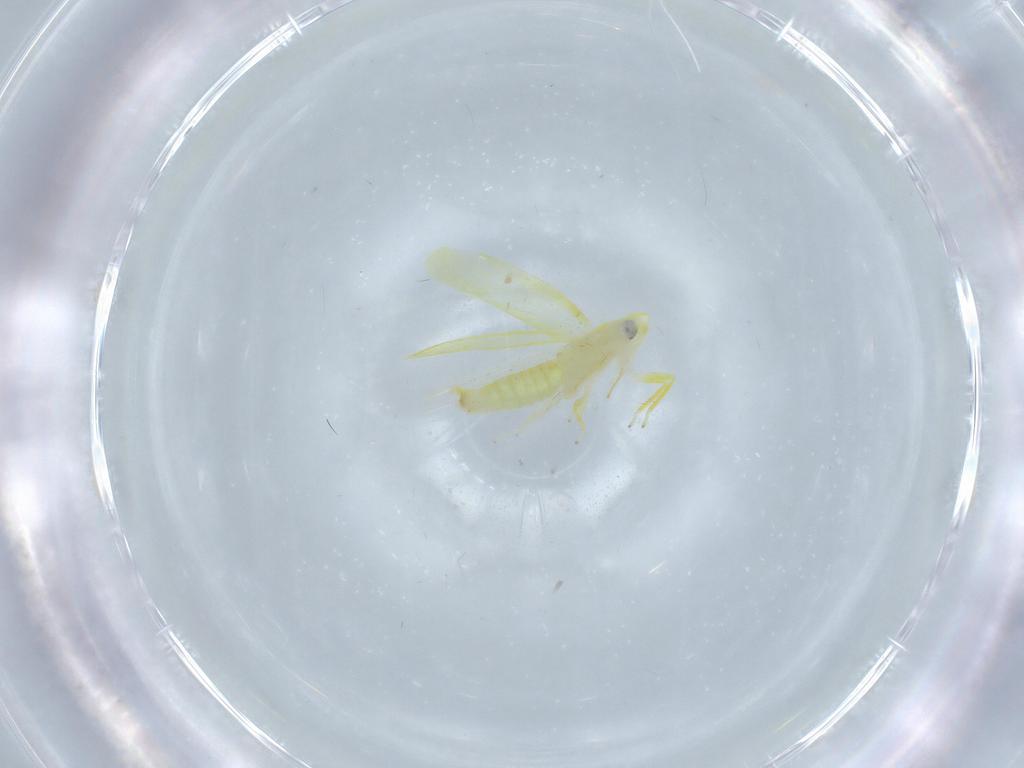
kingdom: Animalia
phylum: Arthropoda
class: Insecta
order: Hemiptera
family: Cicadellidae
